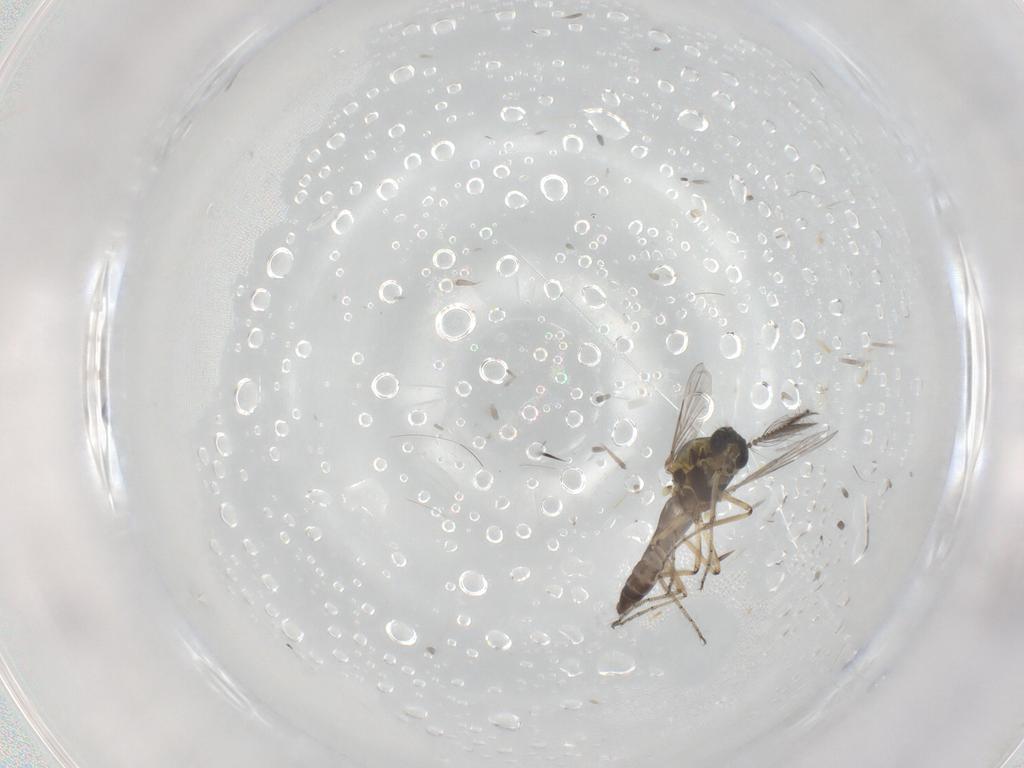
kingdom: Animalia
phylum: Arthropoda
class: Insecta
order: Diptera
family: Ceratopogonidae
